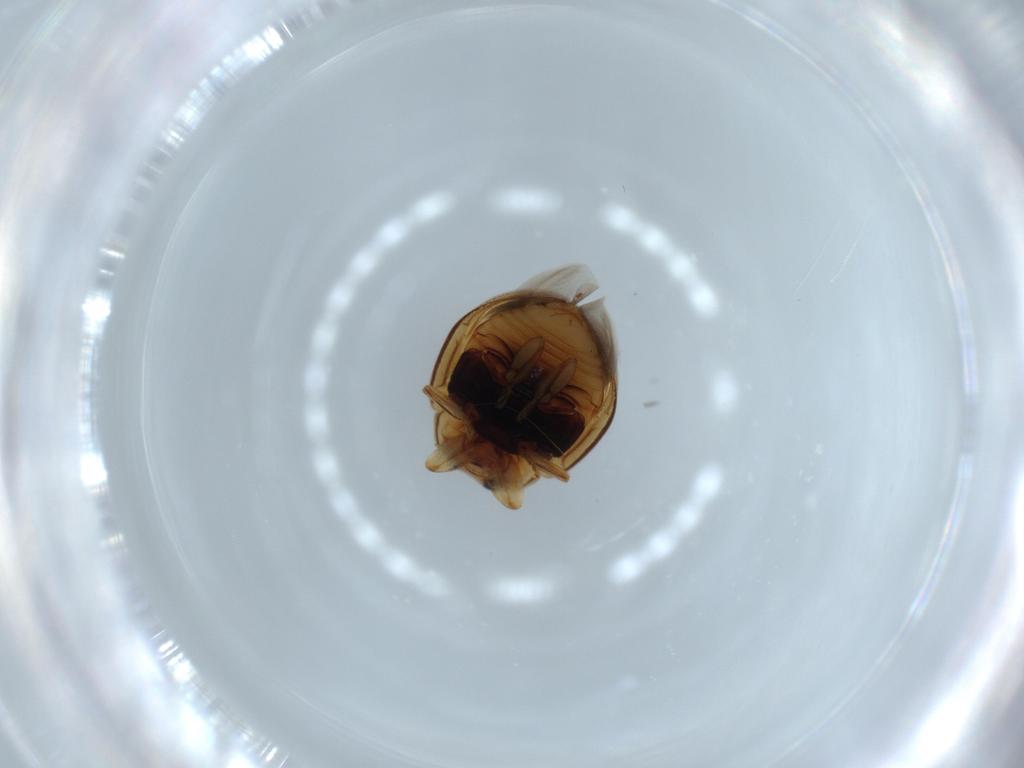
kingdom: Animalia
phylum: Arthropoda
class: Insecta
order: Coleoptera
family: Coccinellidae
